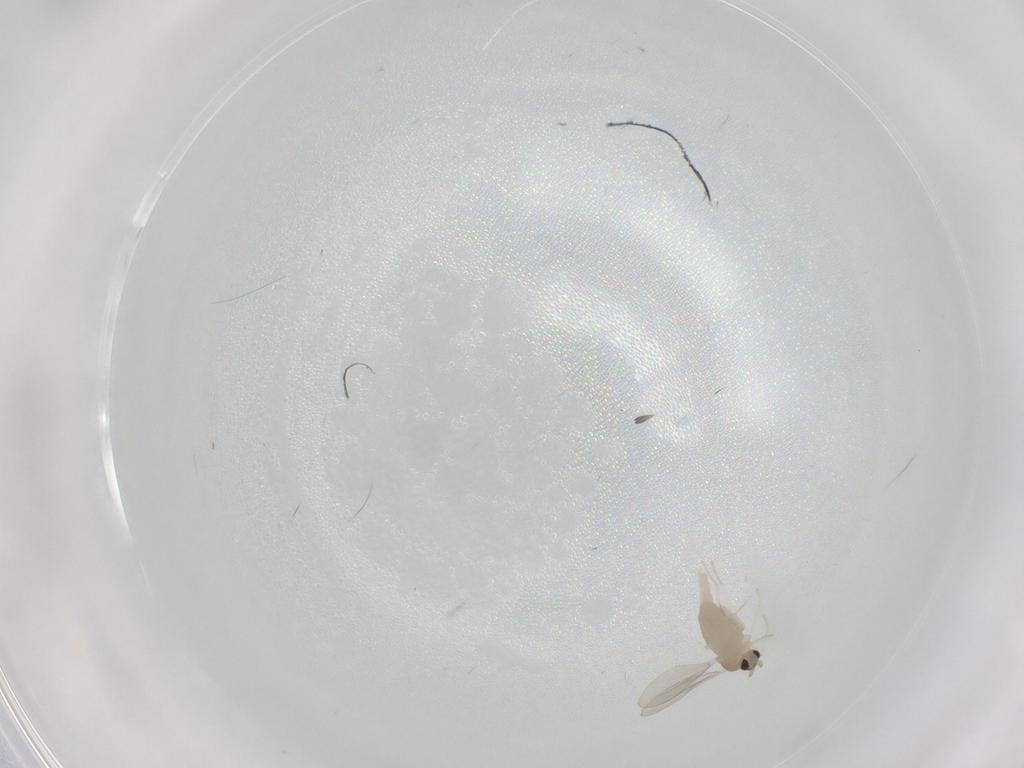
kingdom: Animalia
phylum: Arthropoda
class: Insecta
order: Diptera
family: Cecidomyiidae
